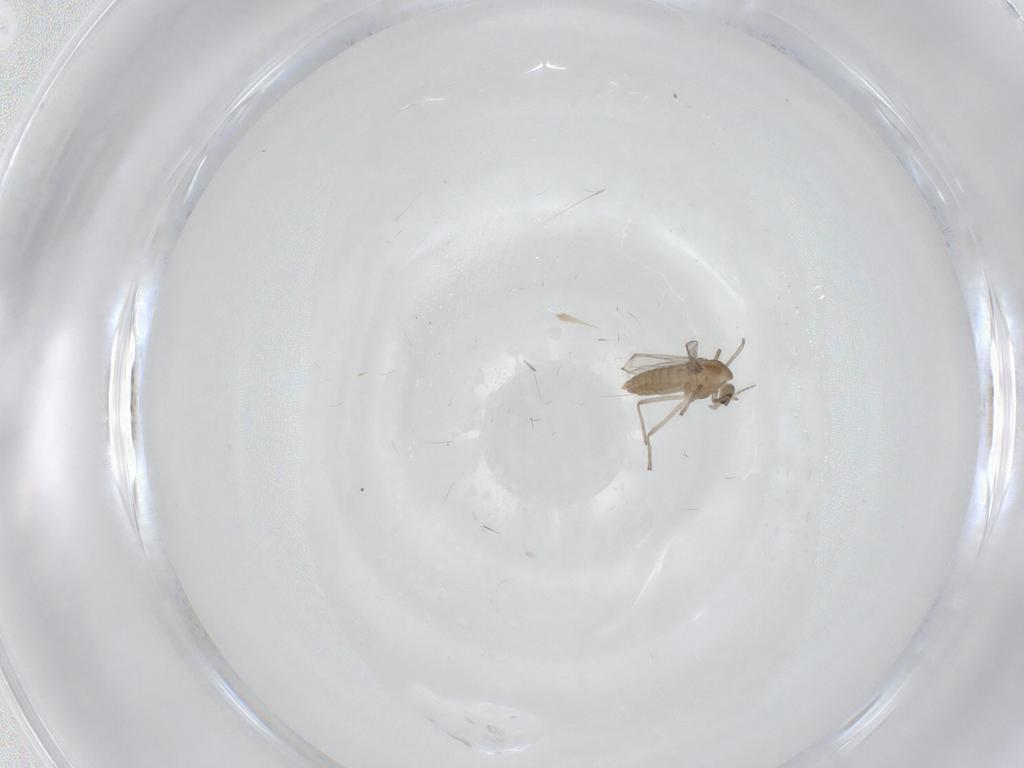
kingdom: Animalia
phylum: Arthropoda
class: Insecta
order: Diptera
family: Chironomidae
